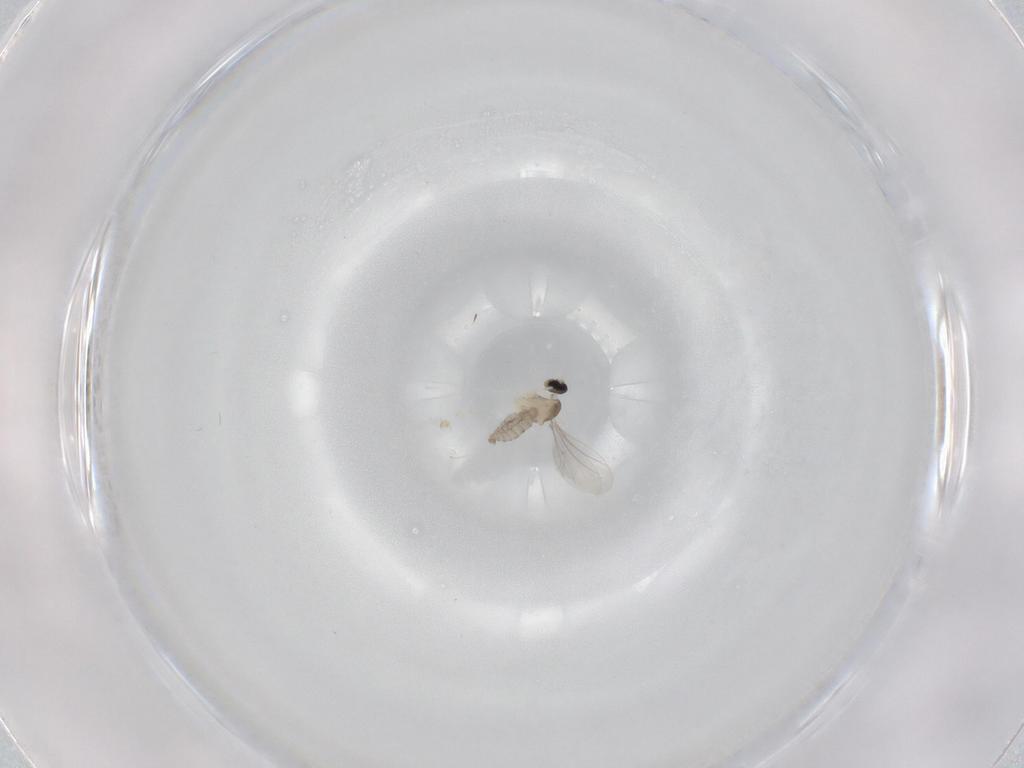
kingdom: Animalia
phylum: Arthropoda
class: Insecta
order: Diptera
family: Cecidomyiidae
